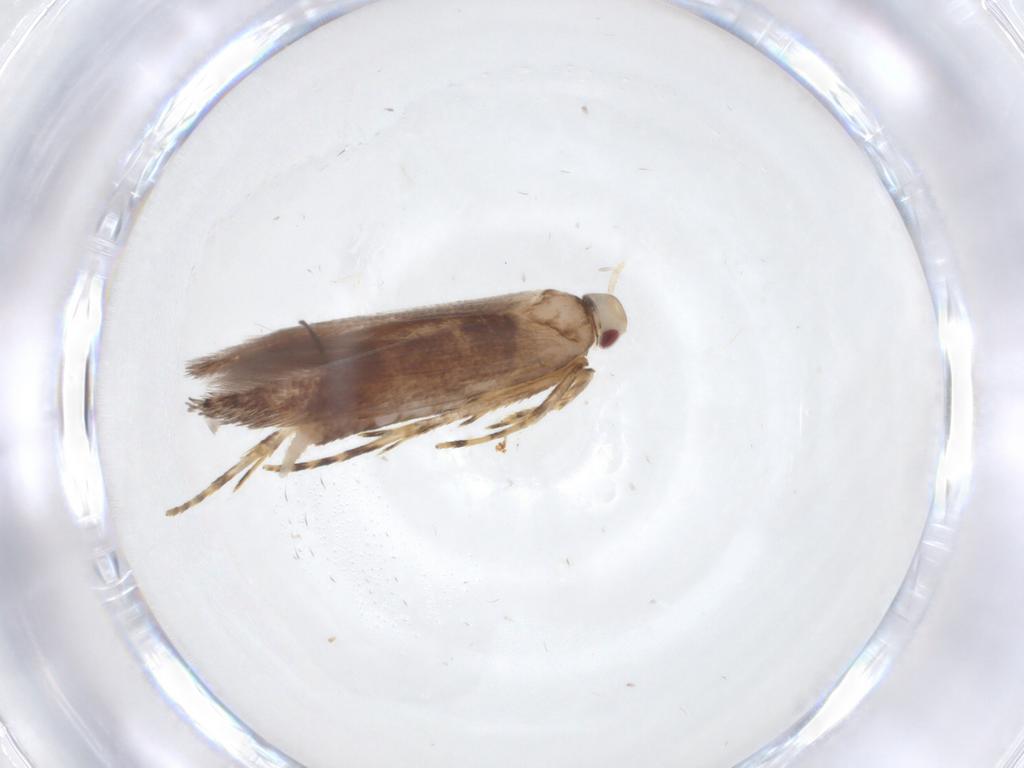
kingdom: Animalia
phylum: Arthropoda
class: Insecta
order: Lepidoptera
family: Cosmopterigidae
